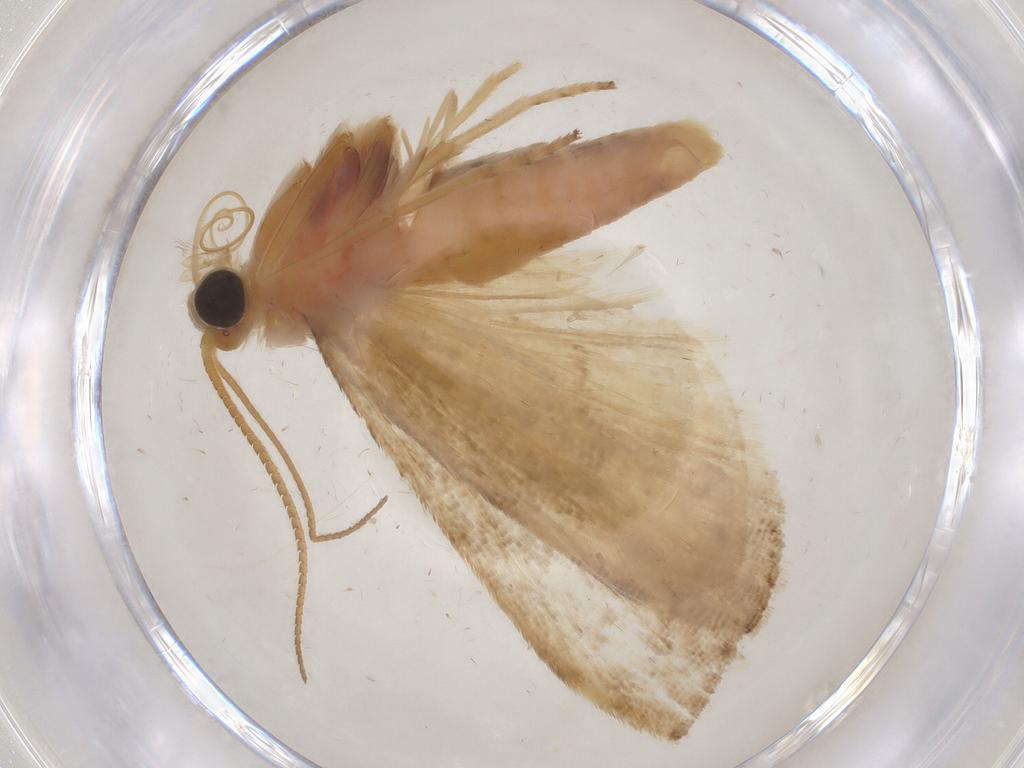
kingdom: Animalia
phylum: Arthropoda
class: Insecta
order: Lepidoptera
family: Pyralidae
